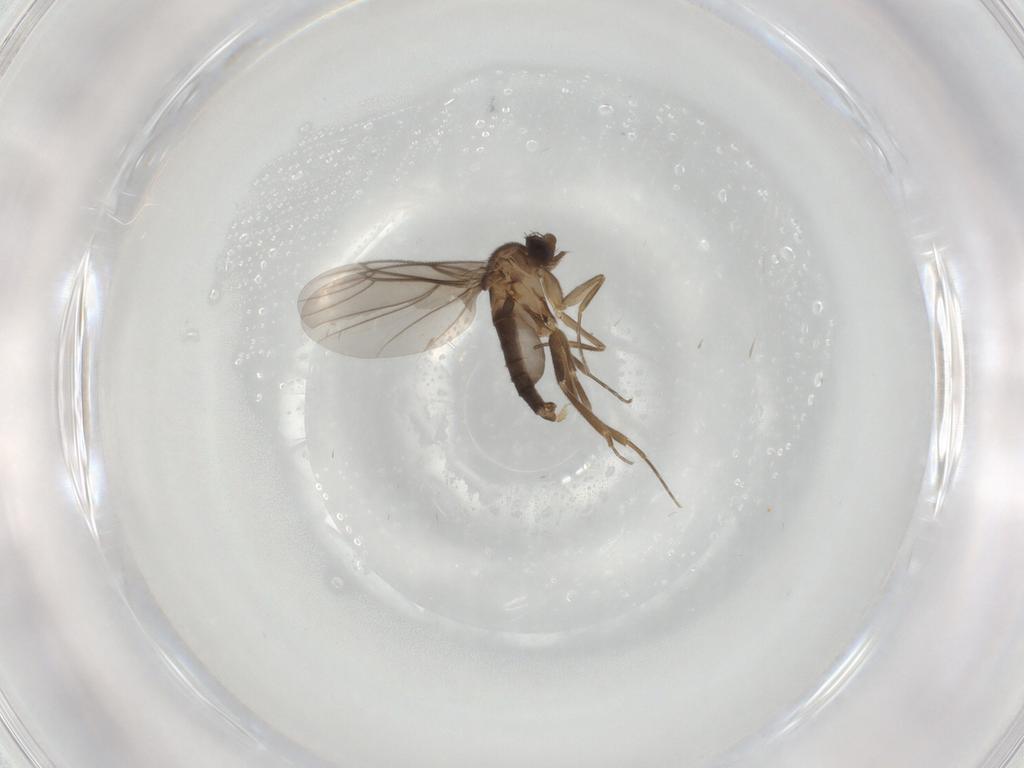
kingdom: Animalia
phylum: Arthropoda
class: Insecta
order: Diptera
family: Phoridae
